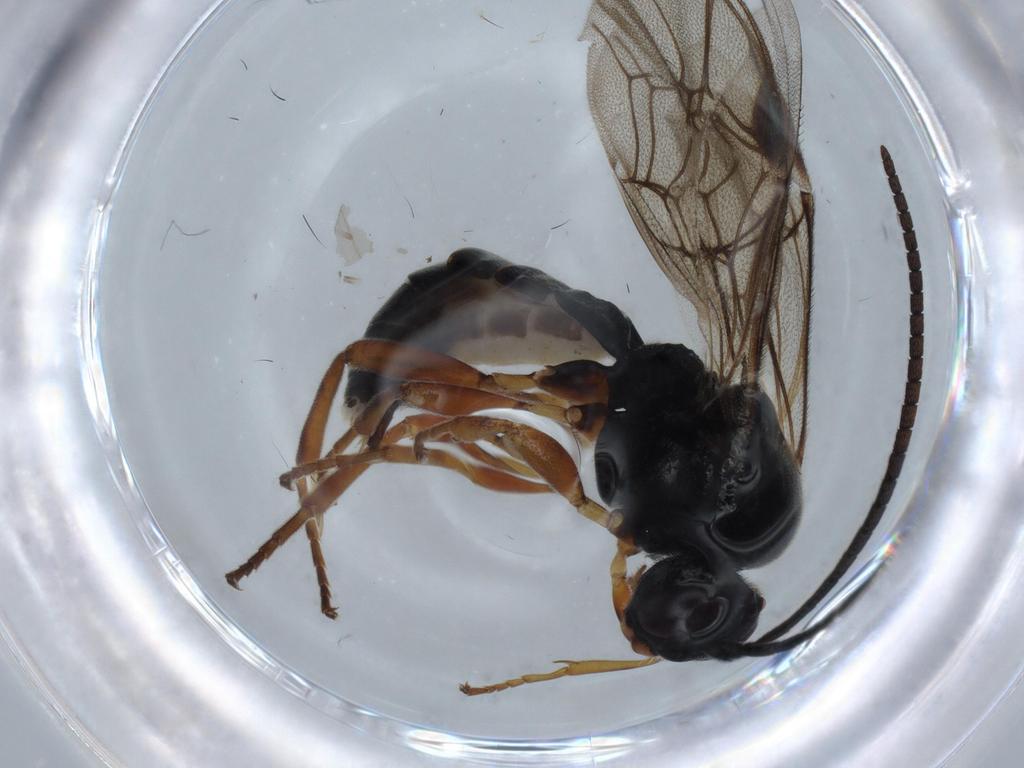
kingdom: Animalia
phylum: Arthropoda
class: Insecta
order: Hymenoptera
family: Ichneumonidae
